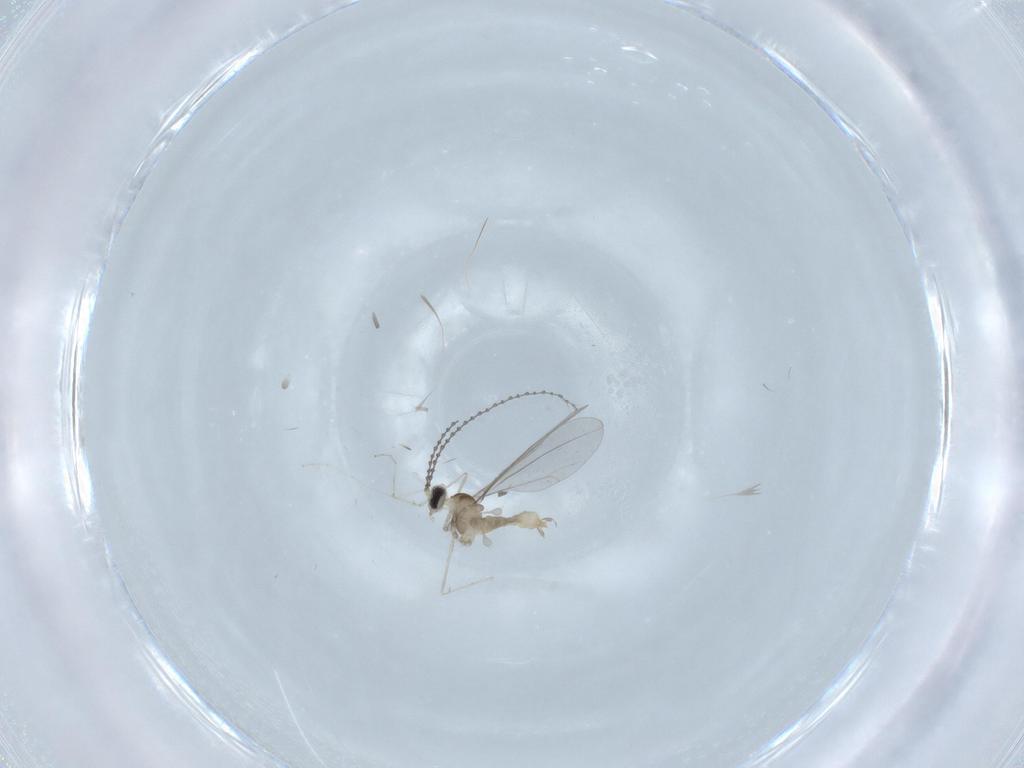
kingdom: Animalia
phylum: Arthropoda
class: Insecta
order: Diptera
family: Cecidomyiidae
